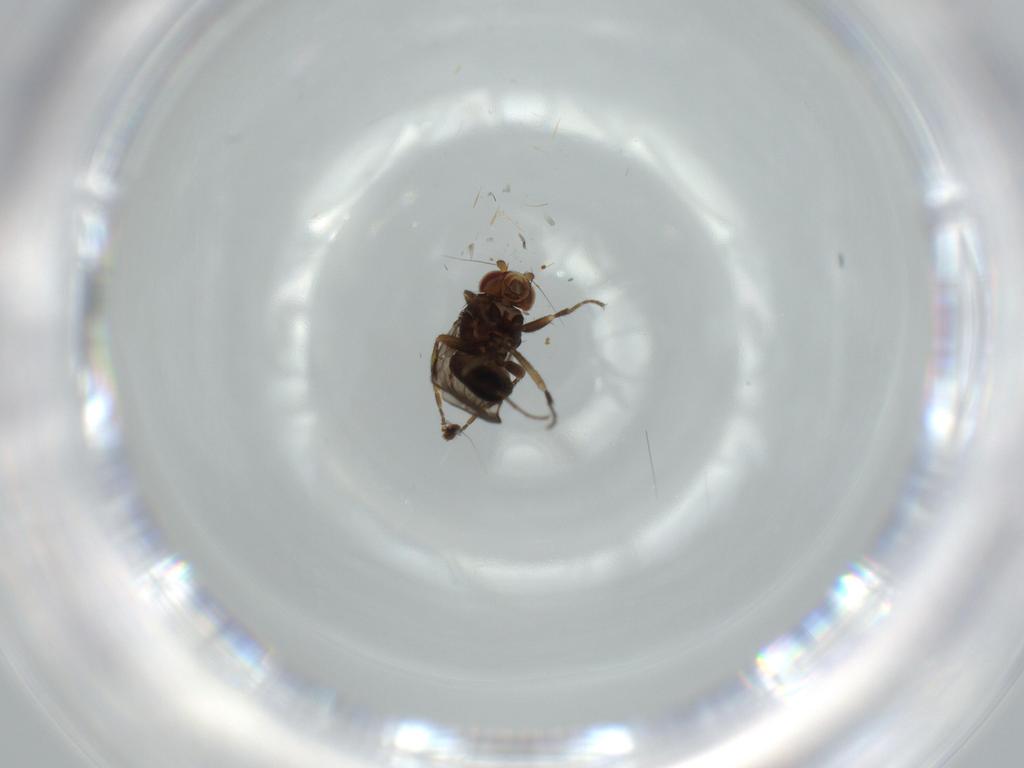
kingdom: Animalia
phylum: Arthropoda
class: Insecta
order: Diptera
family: Sphaeroceridae
